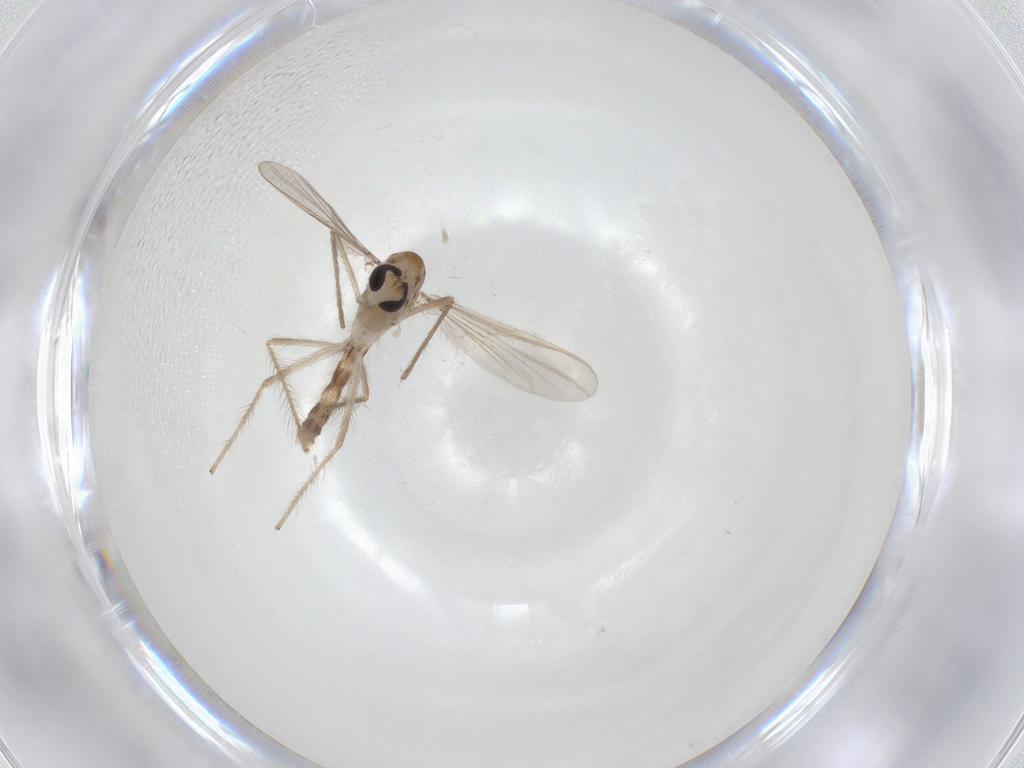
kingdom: Animalia
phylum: Arthropoda
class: Insecta
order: Diptera
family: Chironomidae
